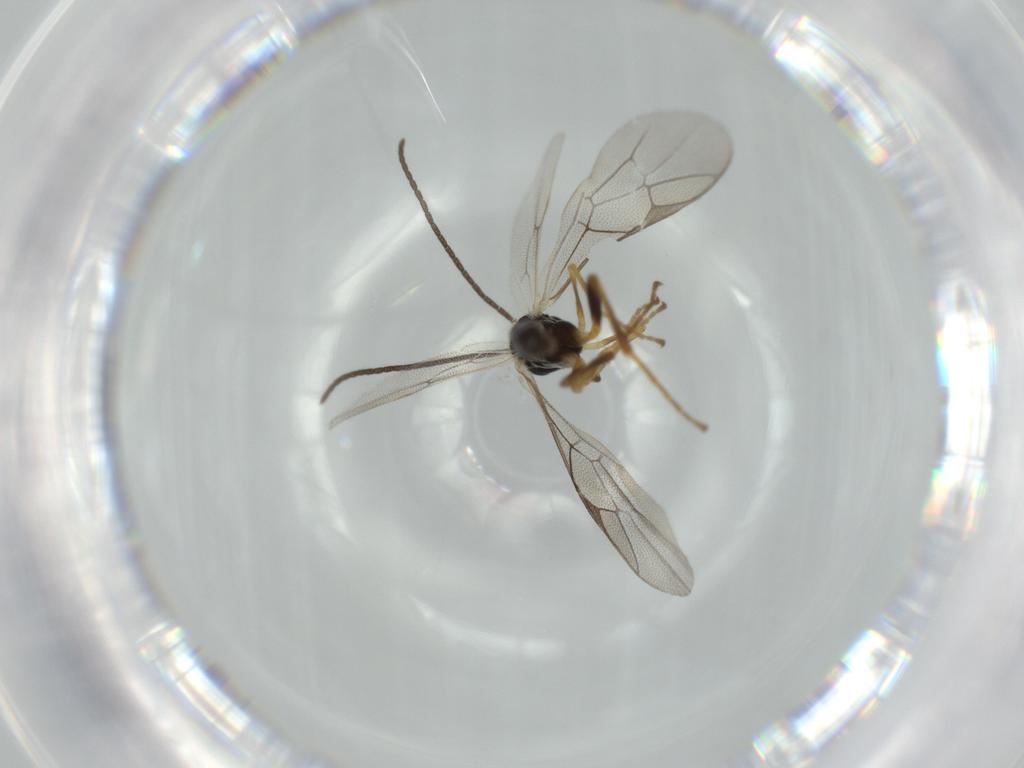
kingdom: Animalia
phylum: Arthropoda
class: Insecta
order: Hymenoptera
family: Ichneumonidae
